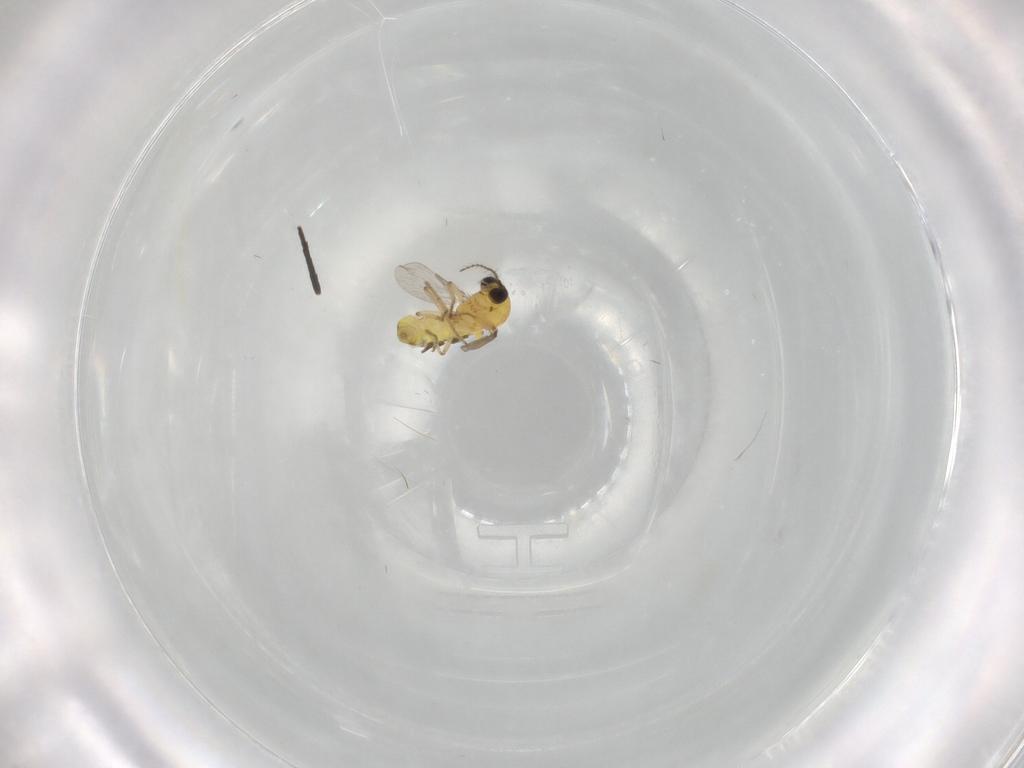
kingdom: Animalia
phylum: Arthropoda
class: Insecta
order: Diptera
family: Ceratopogonidae
